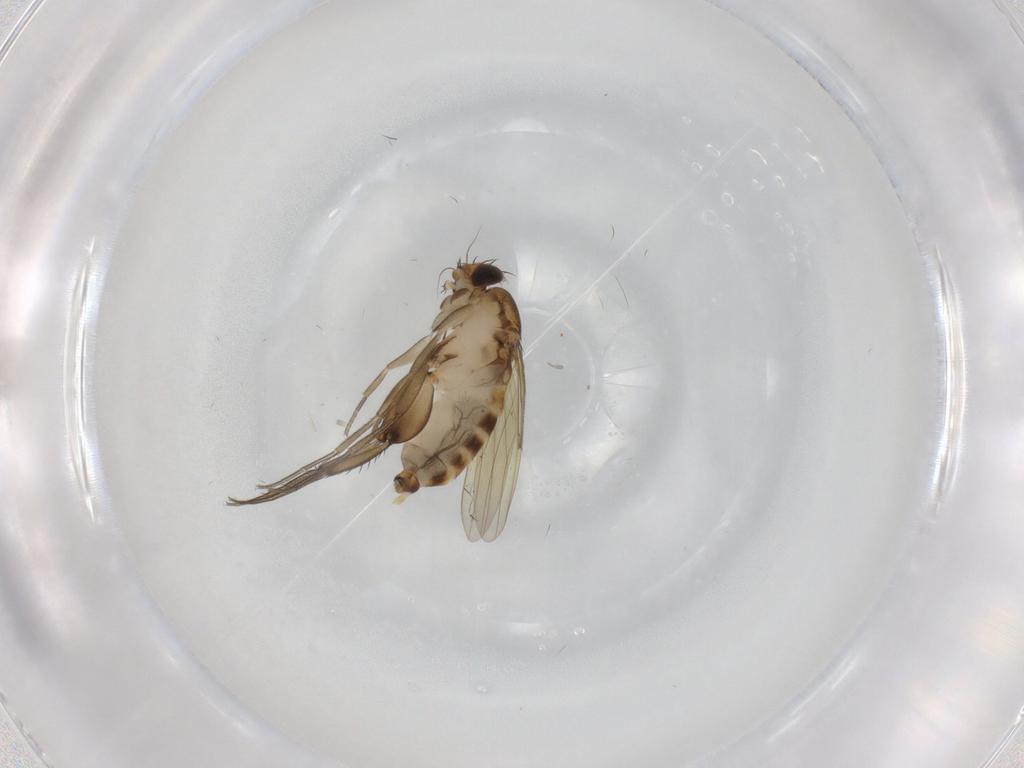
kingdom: Animalia
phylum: Arthropoda
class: Insecta
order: Diptera
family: Phoridae
